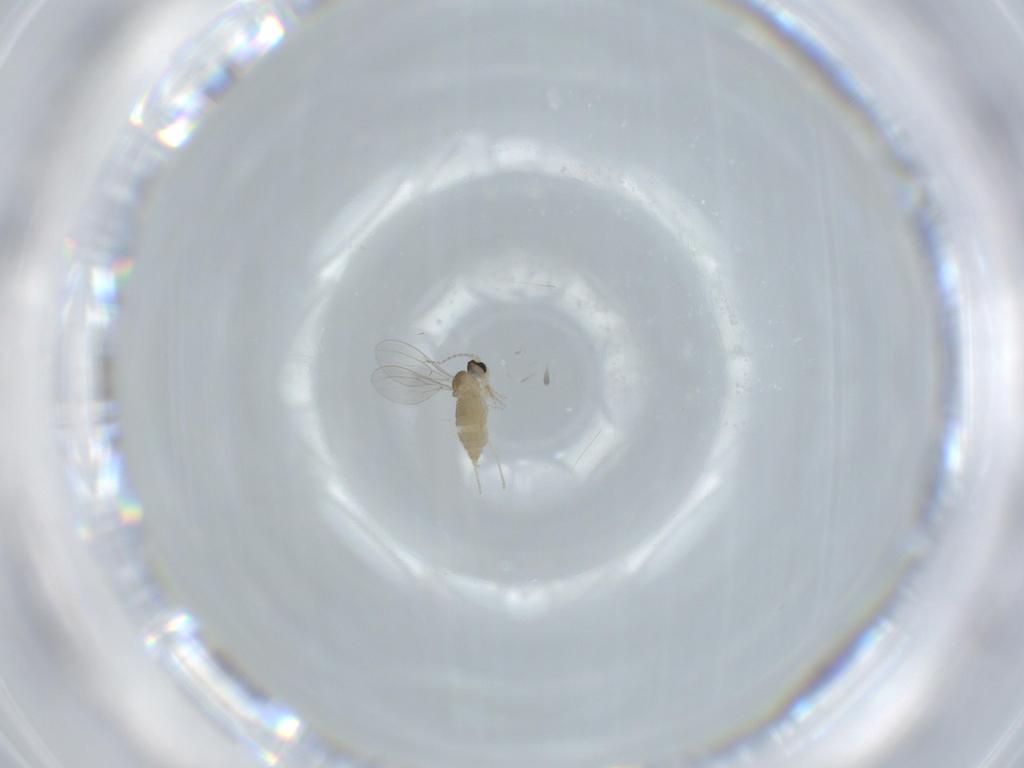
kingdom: Animalia
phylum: Arthropoda
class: Insecta
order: Diptera
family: Cecidomyiidae
